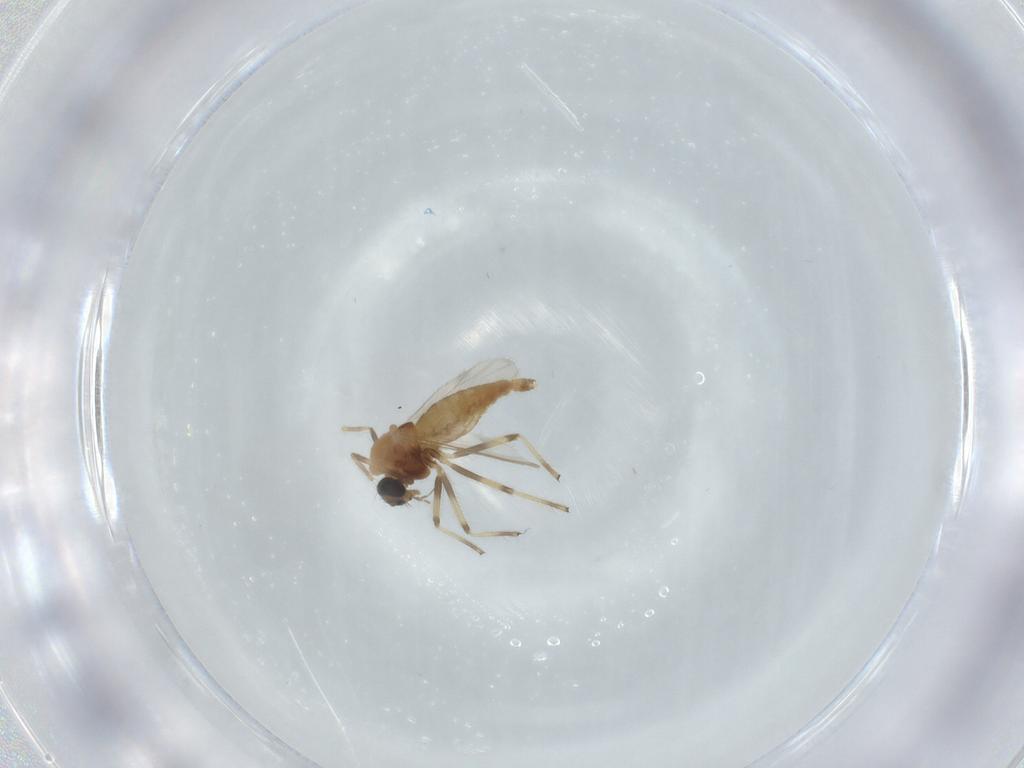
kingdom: Animalia
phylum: Arthropoda
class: Insecta
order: Diptera
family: Chironomidae
